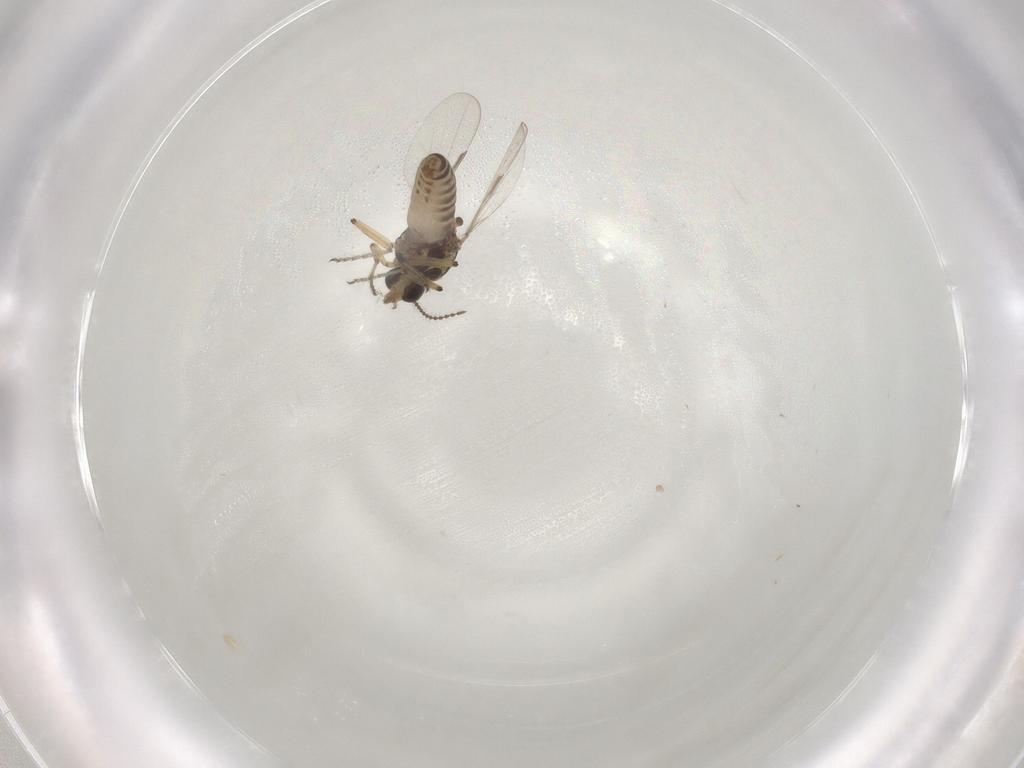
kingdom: Animalia
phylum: Arthropoda
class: Insecta
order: Diptera
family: Ceratopogonidae
